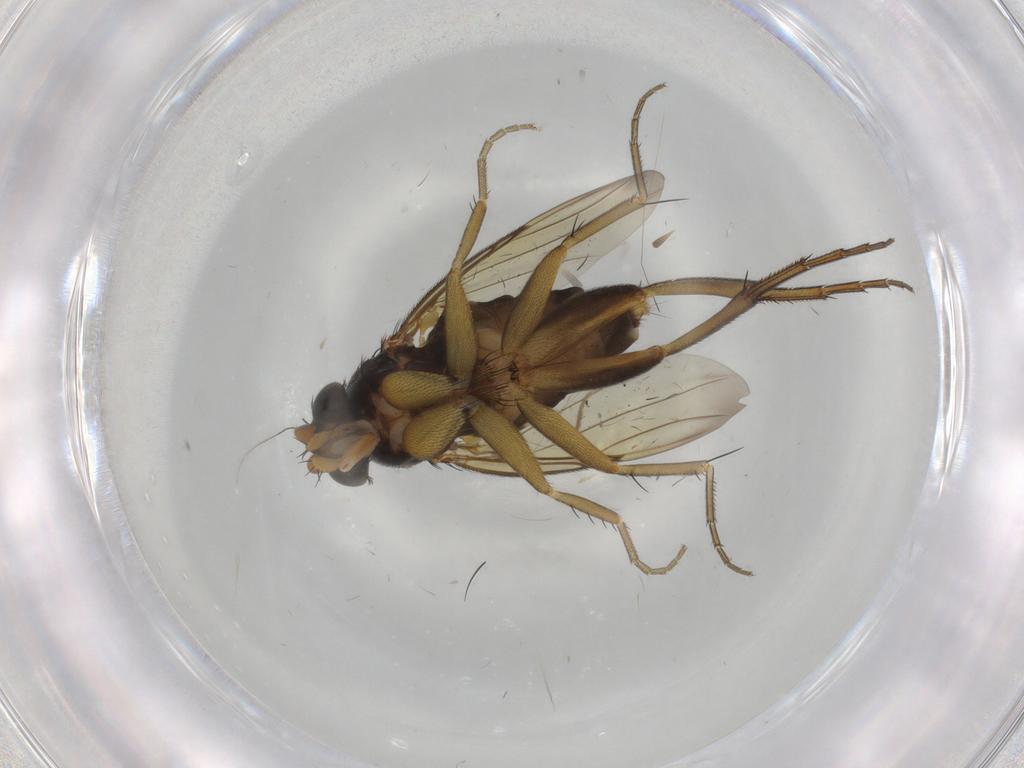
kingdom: Animalia
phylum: Arthropoda
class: Insecta
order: Diptera
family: Phoridae
